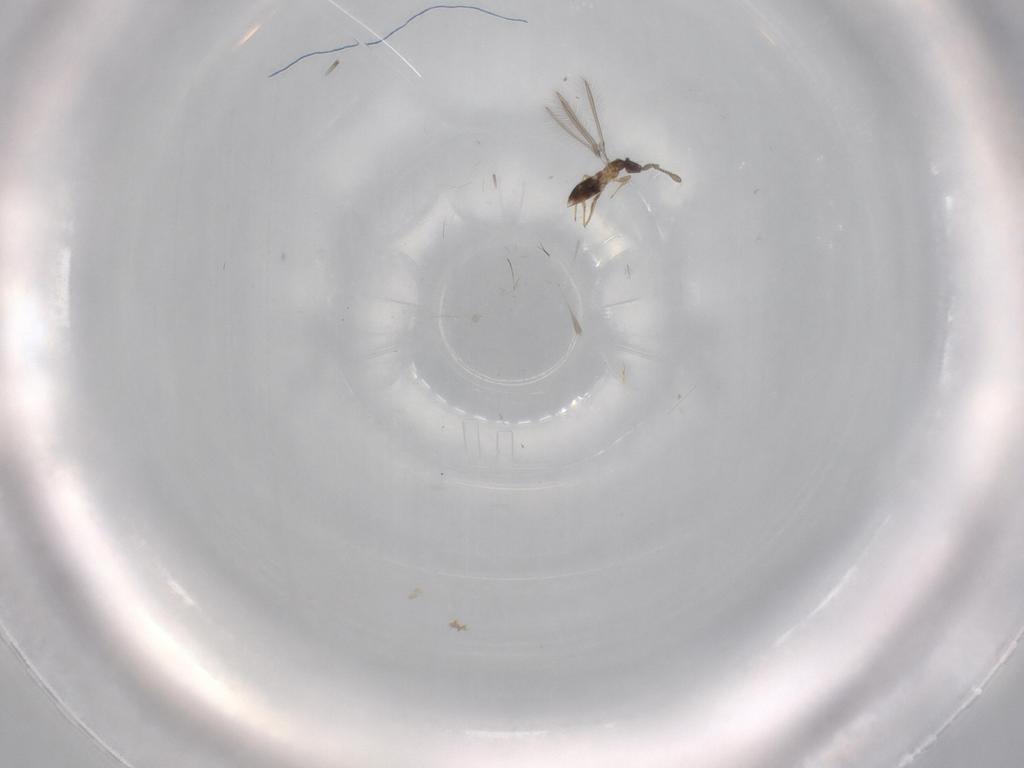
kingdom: Animalia
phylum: Arthropoda
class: Insecta
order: Hymenoptera
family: Mymaridae
